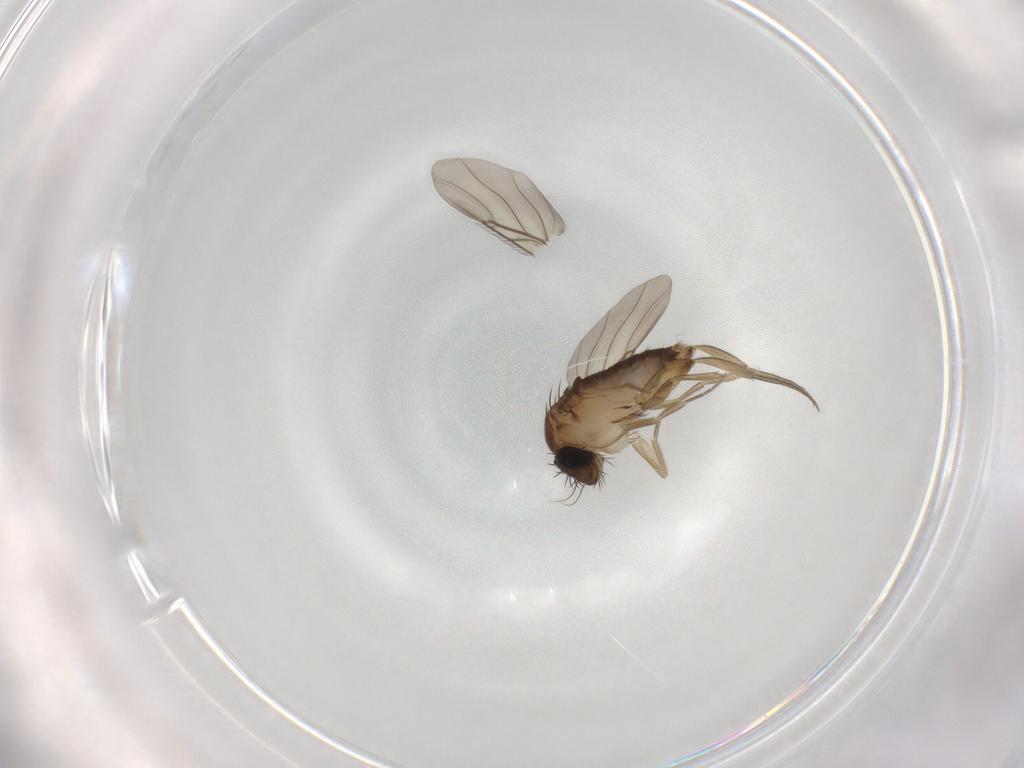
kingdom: Animalia
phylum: Arthropoda
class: Insecta
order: Diptera
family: Phoridae
